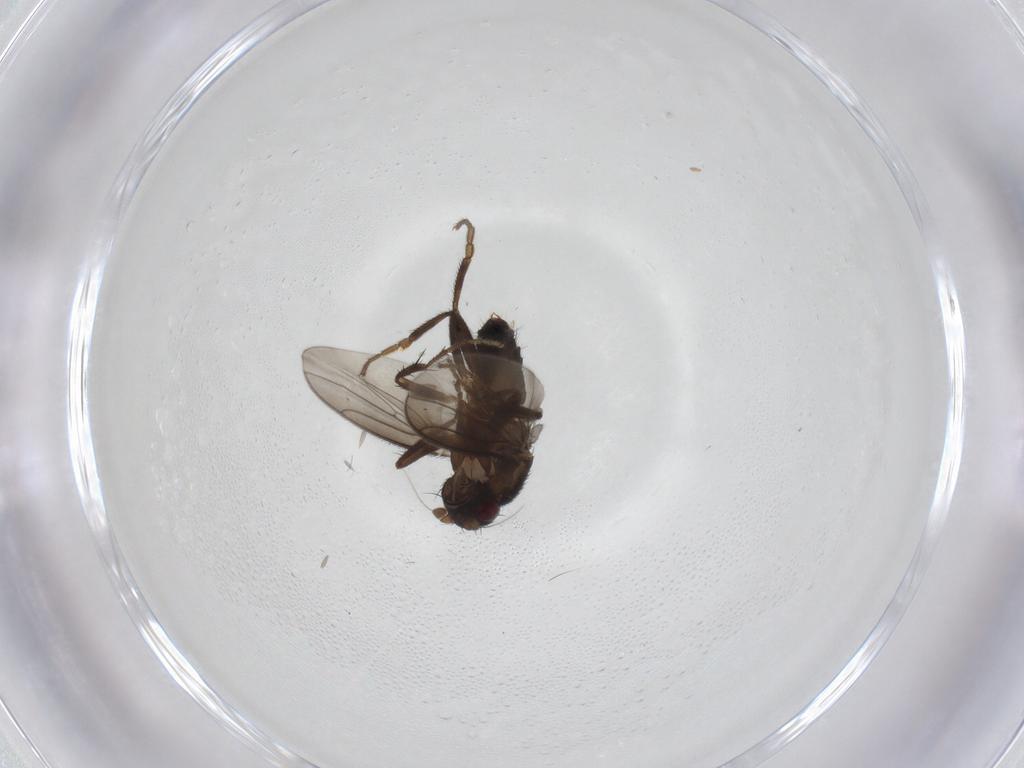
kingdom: Animalia
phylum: Arthropoda
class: Insecta
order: Diptera
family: Sphaeroceridae
